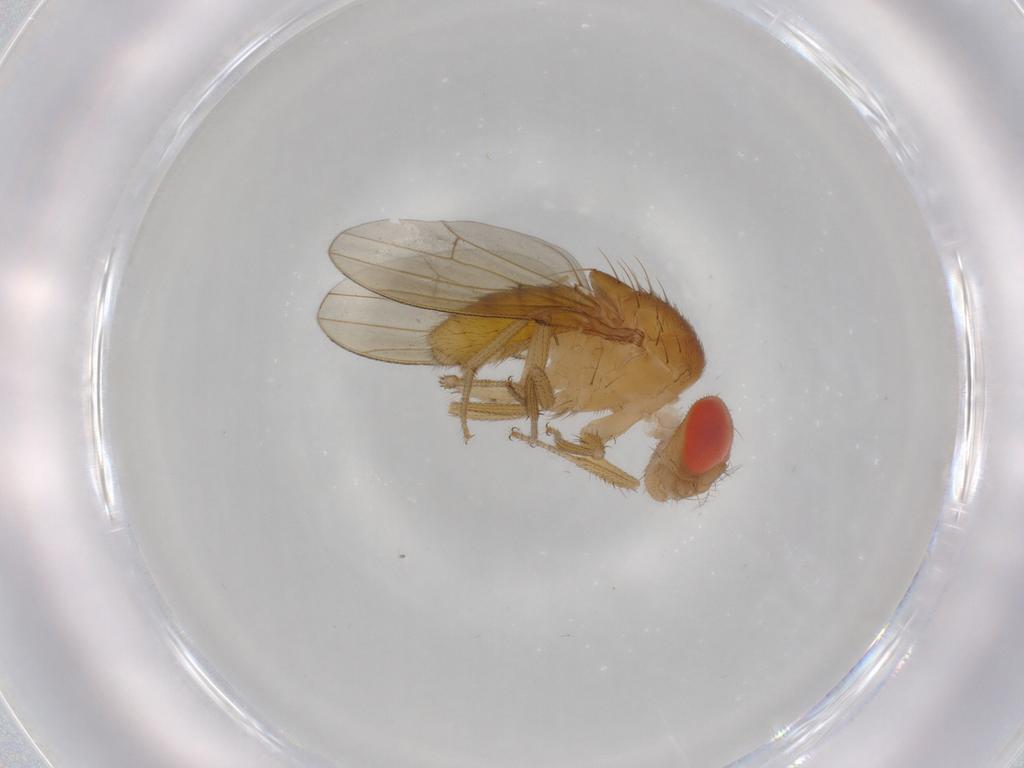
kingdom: Animalia
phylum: Arthropoda
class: Insecta
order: Diptera
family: Drosophilidae
